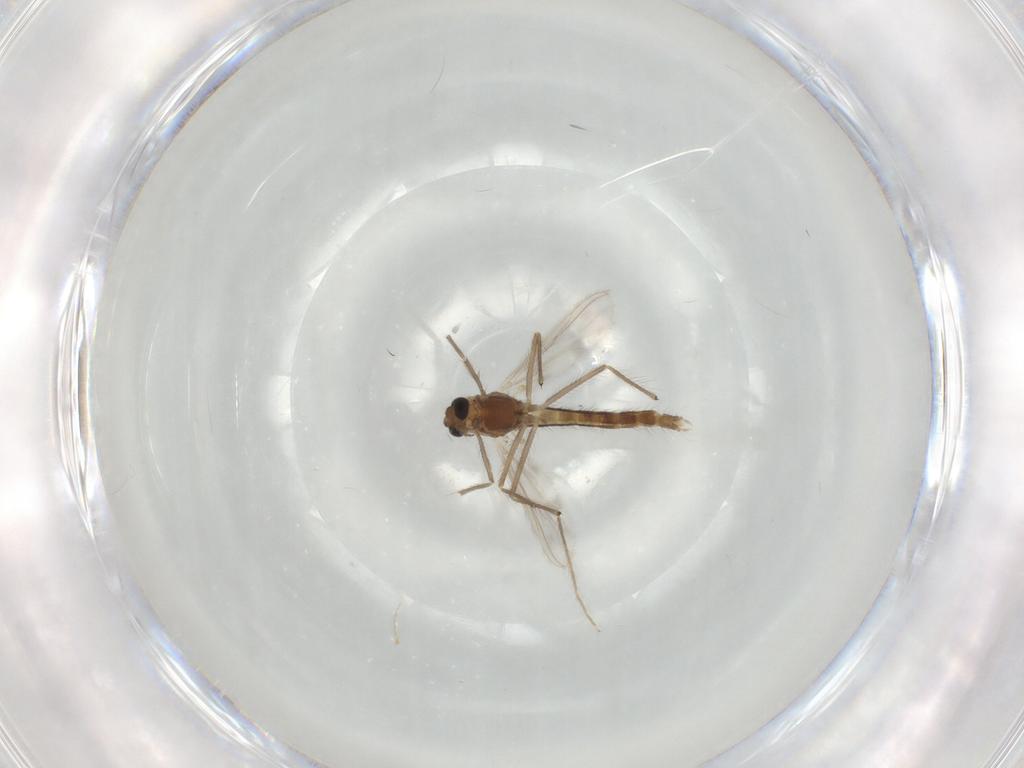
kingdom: Animalia
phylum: Arthropoda
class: Insecta
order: Diptera
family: Chironomidae
